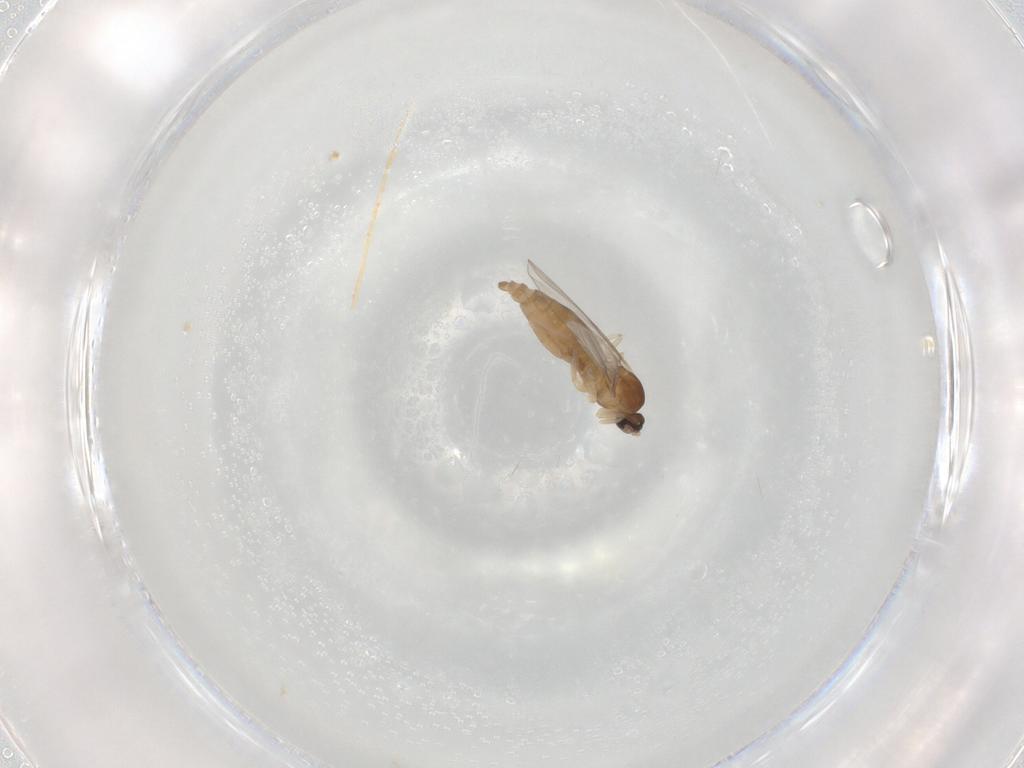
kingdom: Animalia
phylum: Arthropoda
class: Insecta
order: Diptera
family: Cecidomyiidae
